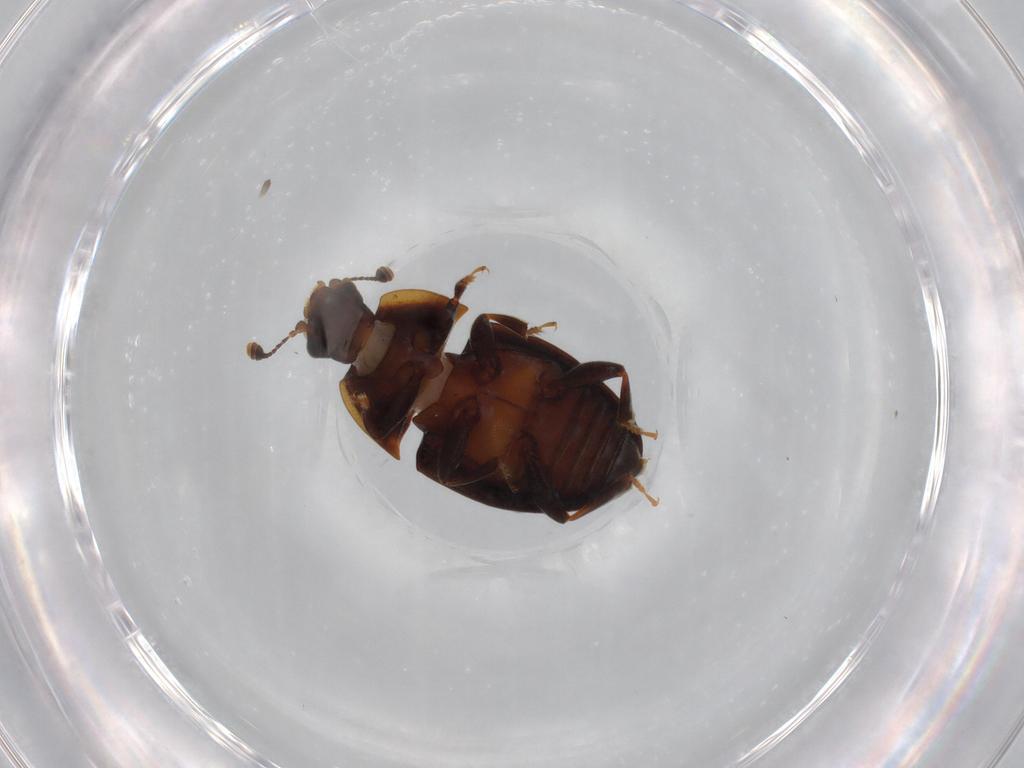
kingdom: Animalia
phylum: Arthropoda
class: Insecta
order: Coleoptera
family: Nitidulidae
